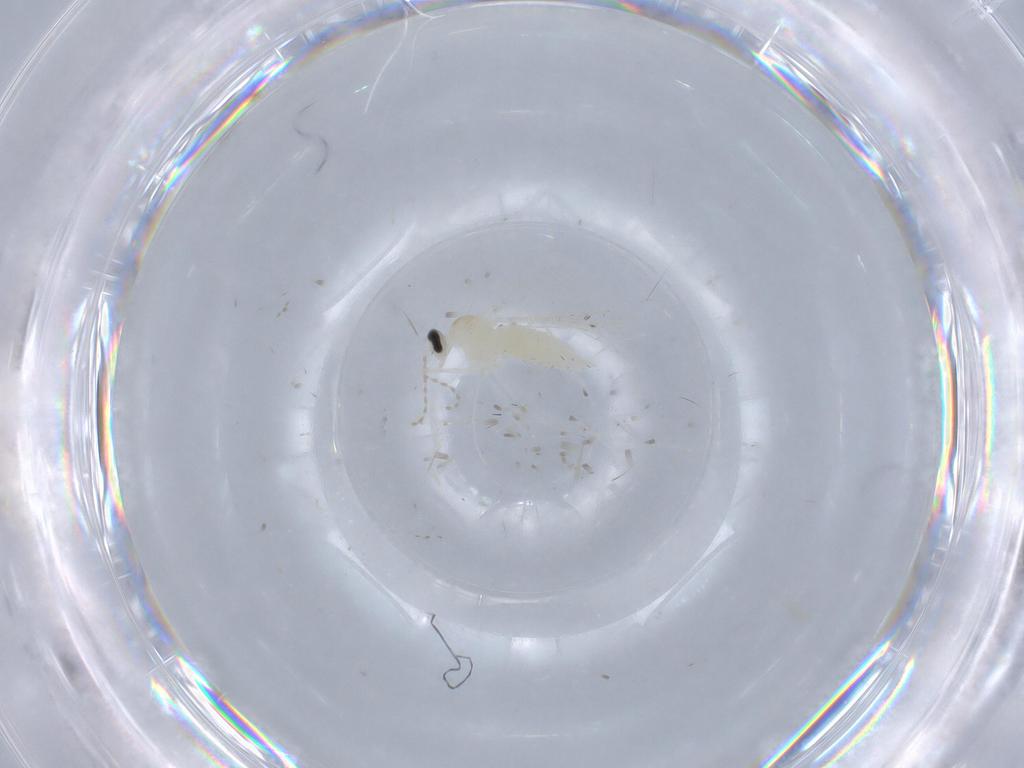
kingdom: Animalia
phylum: Arthropoda
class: Insecta
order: Diptera
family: Cecidomyiidae
